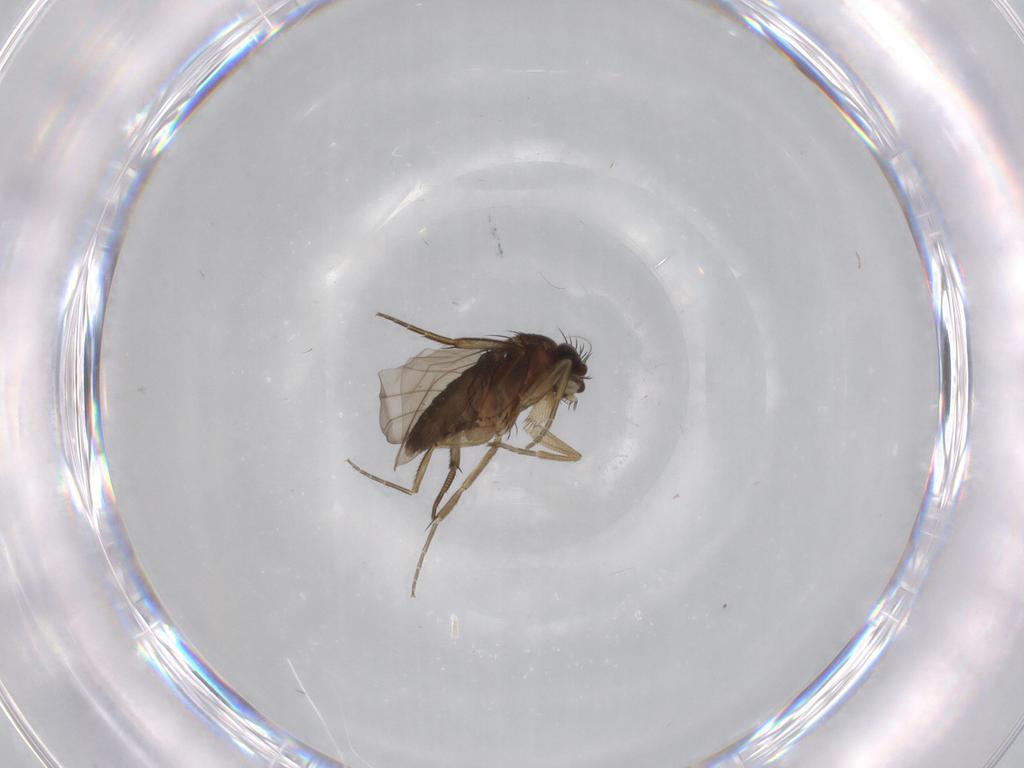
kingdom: Animalia
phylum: Arthropoda
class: Insecta
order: Diptera
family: Phoridae
